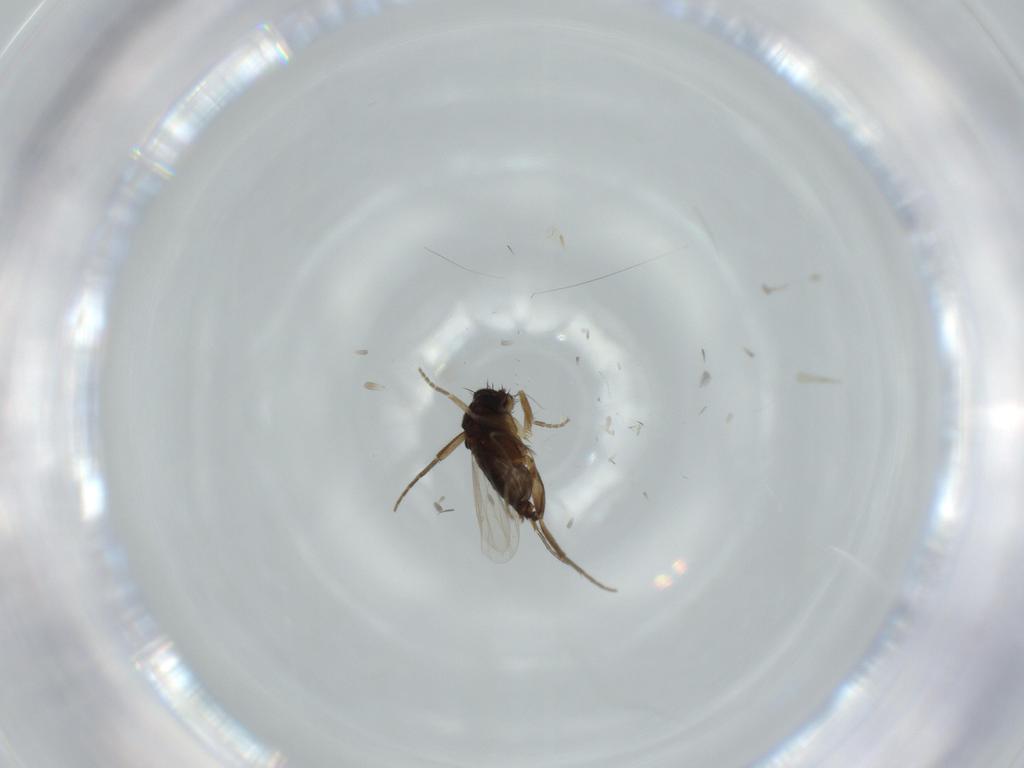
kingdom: Animalia
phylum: Arthropoda
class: Insecta
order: Diptera
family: Phoridae
